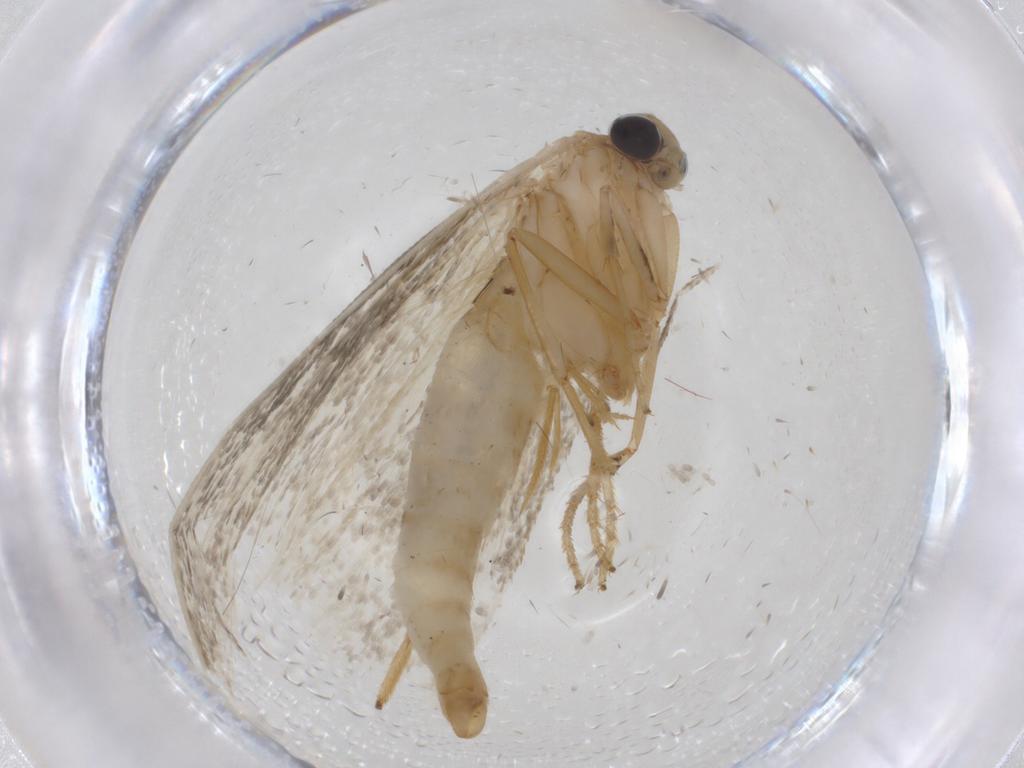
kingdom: Animalia
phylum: Arthropoda
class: Insecta
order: Lepidoptera
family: Tineidae
